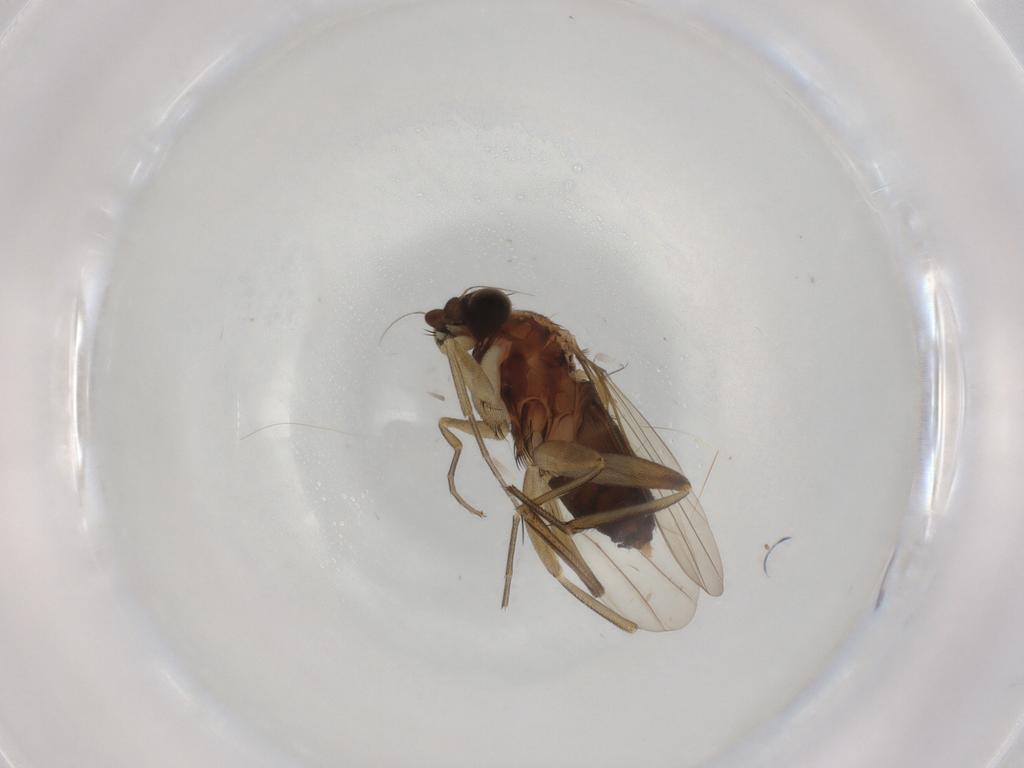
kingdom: Animalia
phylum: Arthropoda
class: Insecta
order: Diptera
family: Phoridae
